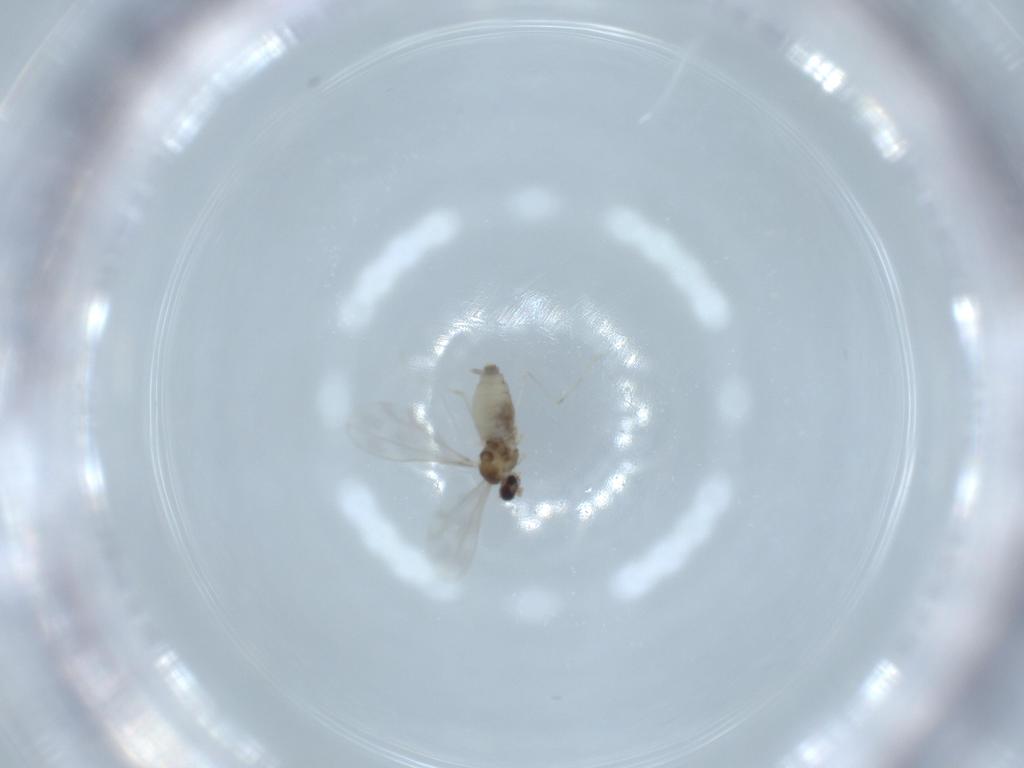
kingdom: Animalia
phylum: Arthropoda
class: Insecta
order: Diptera
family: Cecidomyiidae
